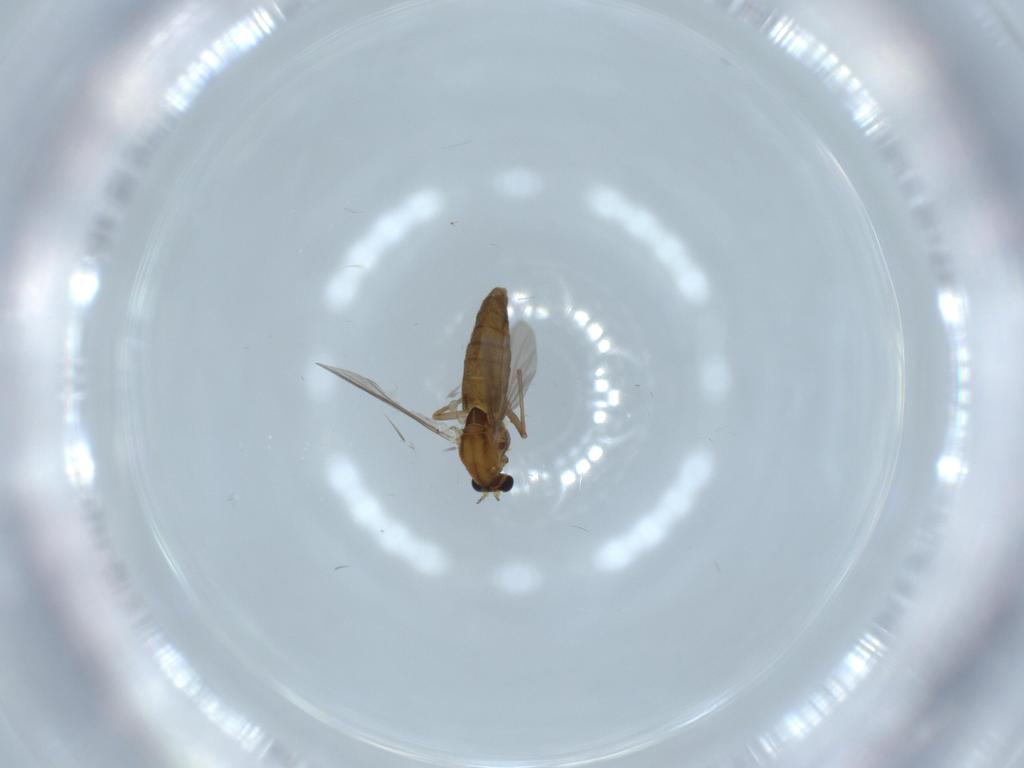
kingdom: Animalia
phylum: Arthropoda
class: Insecta
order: Diptera
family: Chironomidae
